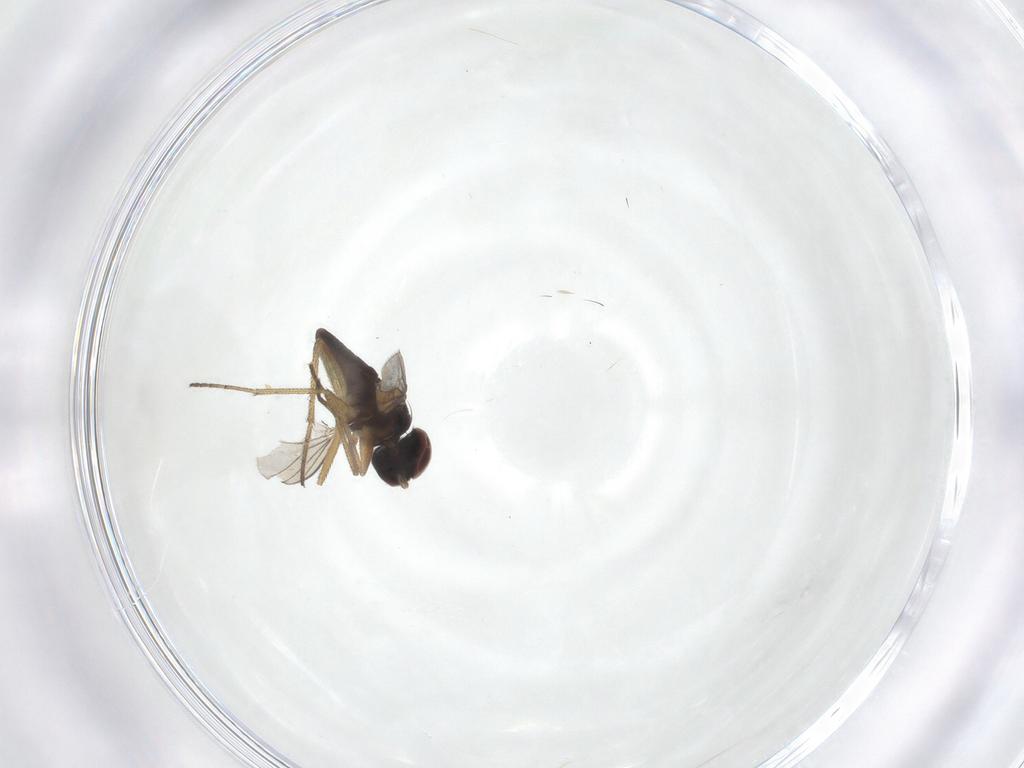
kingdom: Animalia
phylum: Arthropoda
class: Insecta
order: Diptera
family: Dolichopodidae
